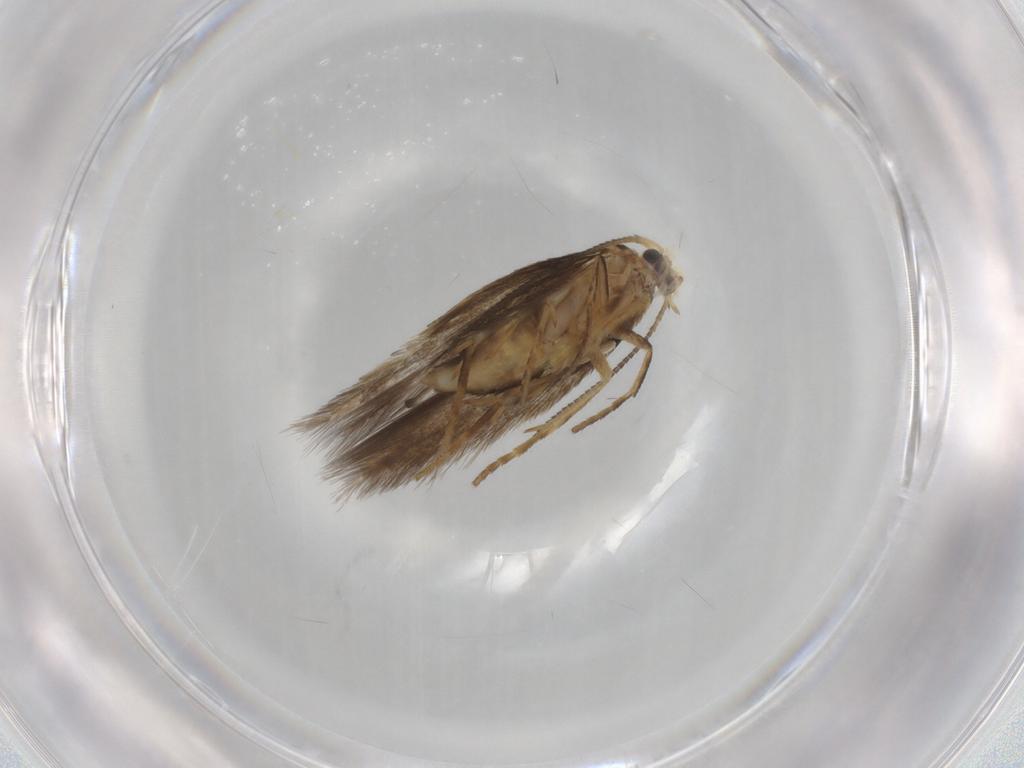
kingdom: Animalia
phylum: Arthropoda
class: Insecta
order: Lepidoptera
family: Nepticulidae
